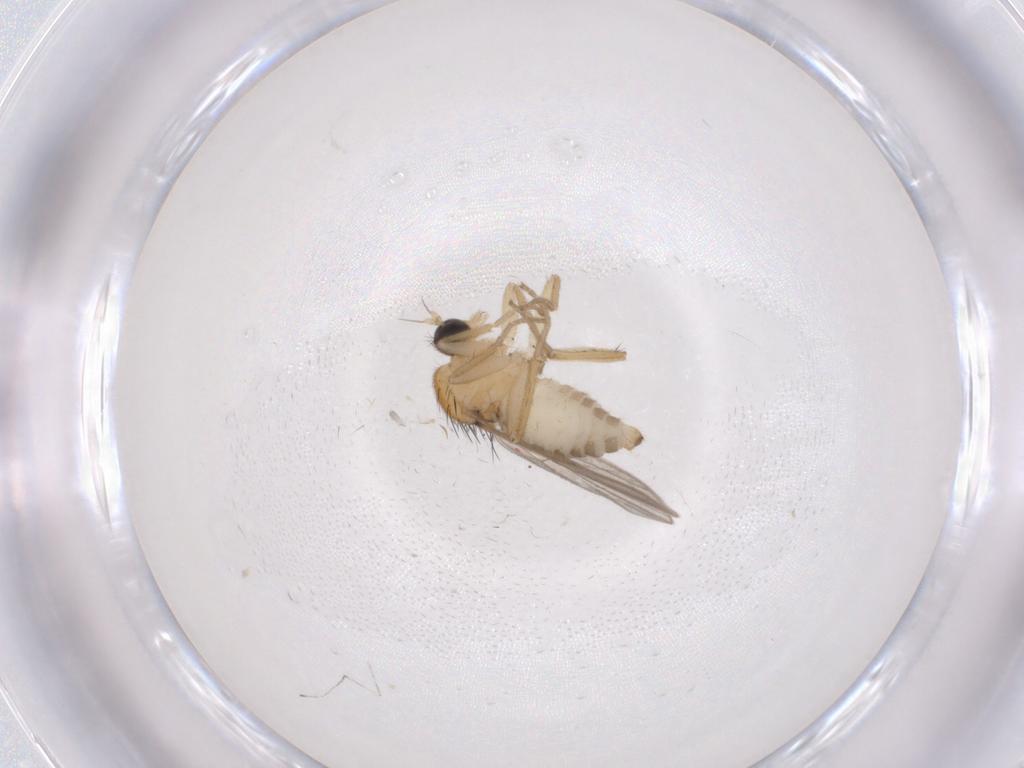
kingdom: Animalia
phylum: Arthropoda
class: Insecta
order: Diptera
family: Hybotidae
